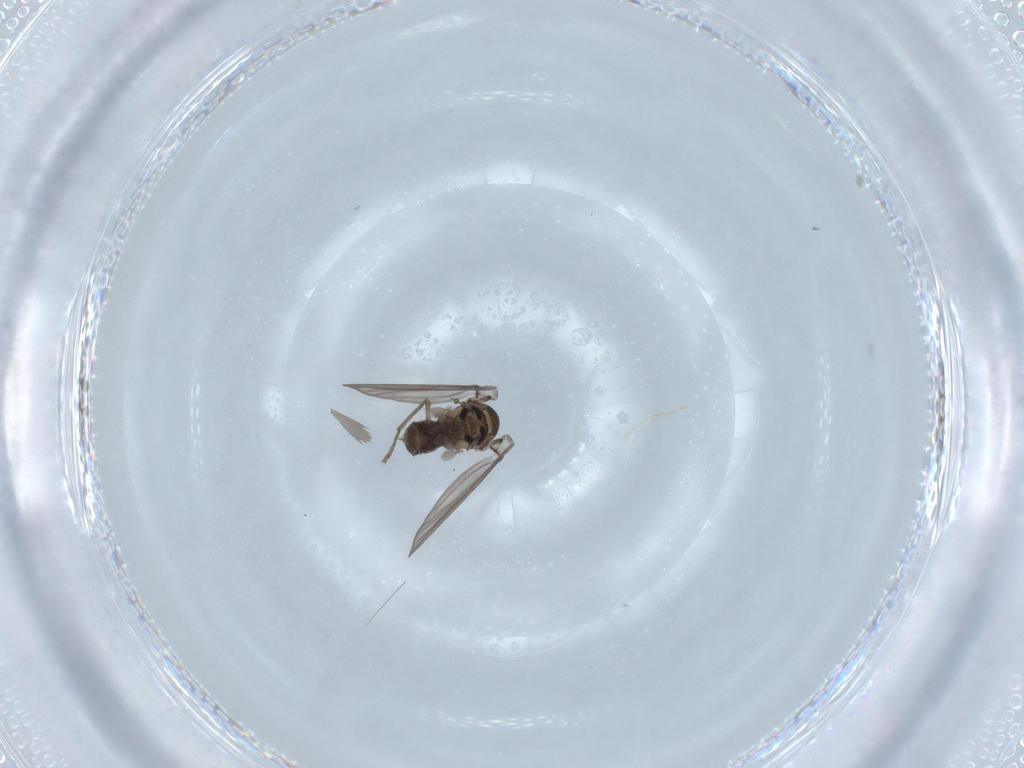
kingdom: Animalia
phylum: Arthropoda
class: Insecta
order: Diptera
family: Psychodidae
